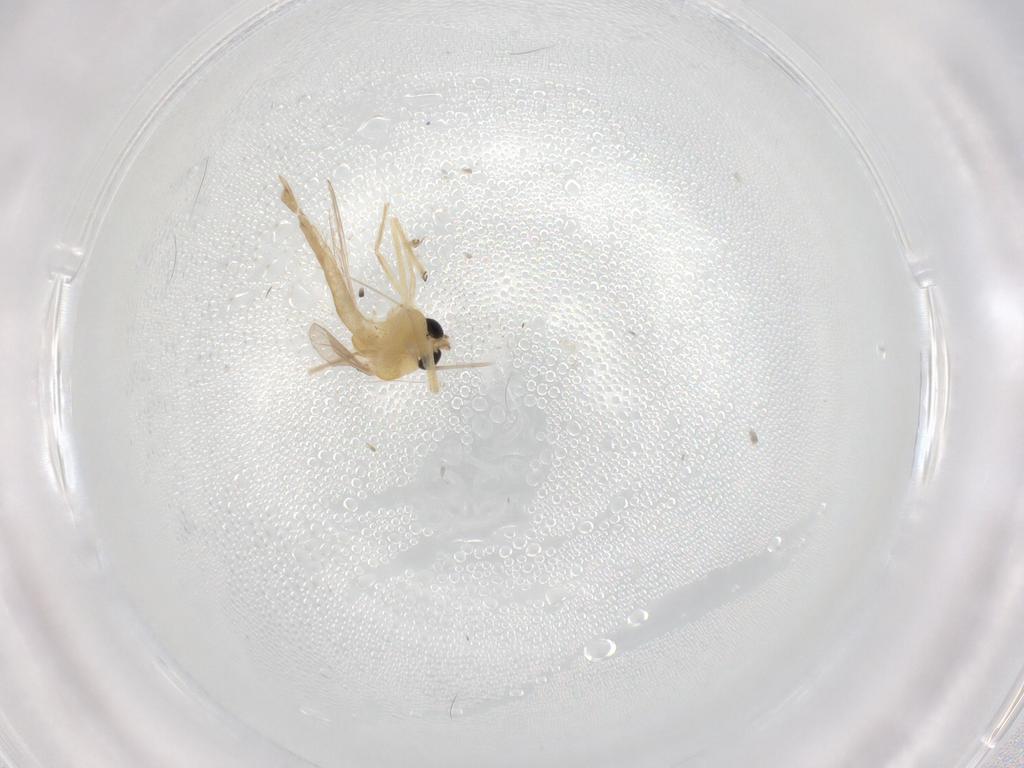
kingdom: Animalia
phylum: Arthropoda
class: Insecta
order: Diptera
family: Chironomidae
